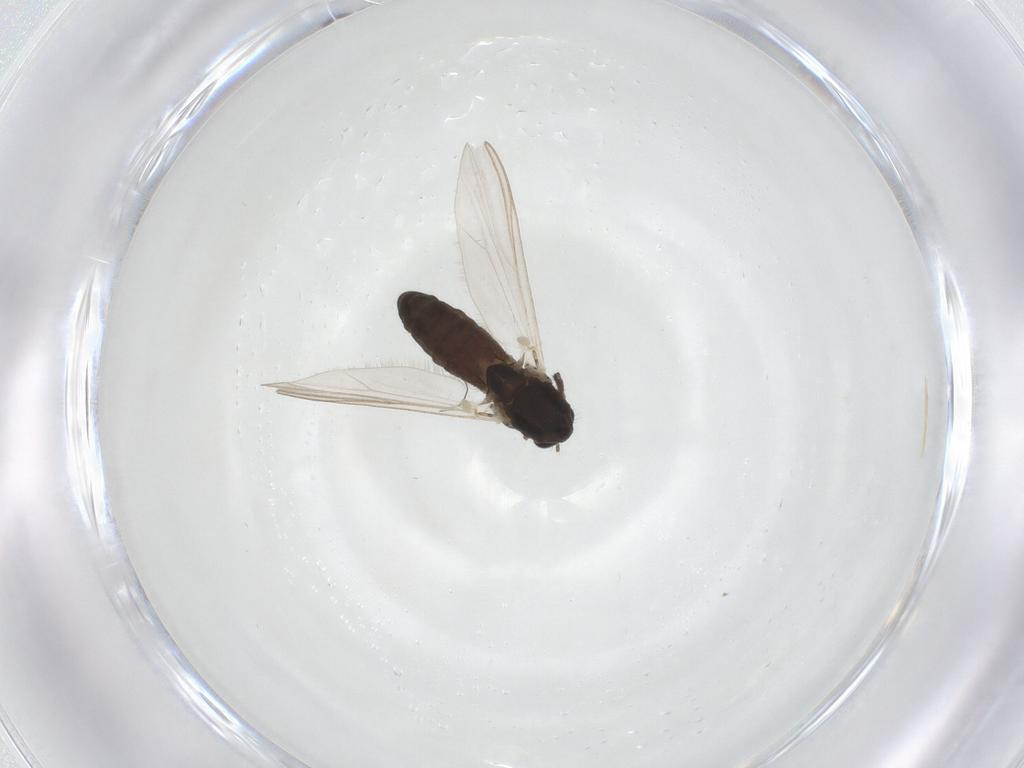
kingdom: Animalia
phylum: Arthropoda
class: Insecta
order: Diptera
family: Chironomidae
